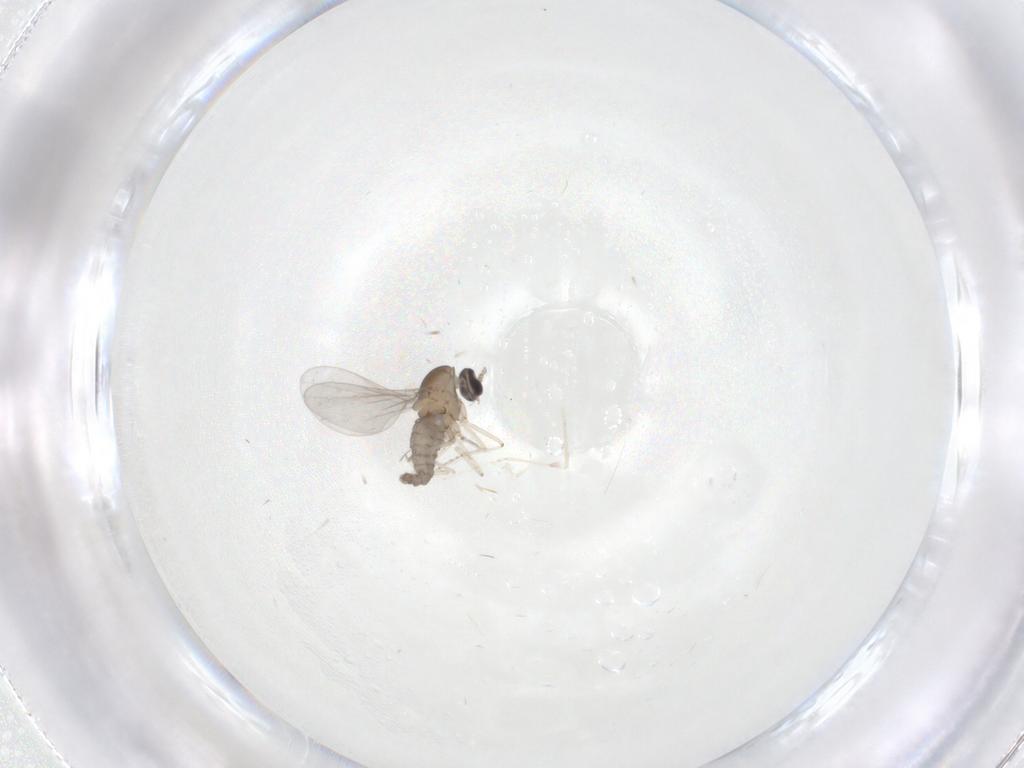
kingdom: Animalia
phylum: Arthropoda
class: Insecta
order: Diptera
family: Cecidomyiidae
